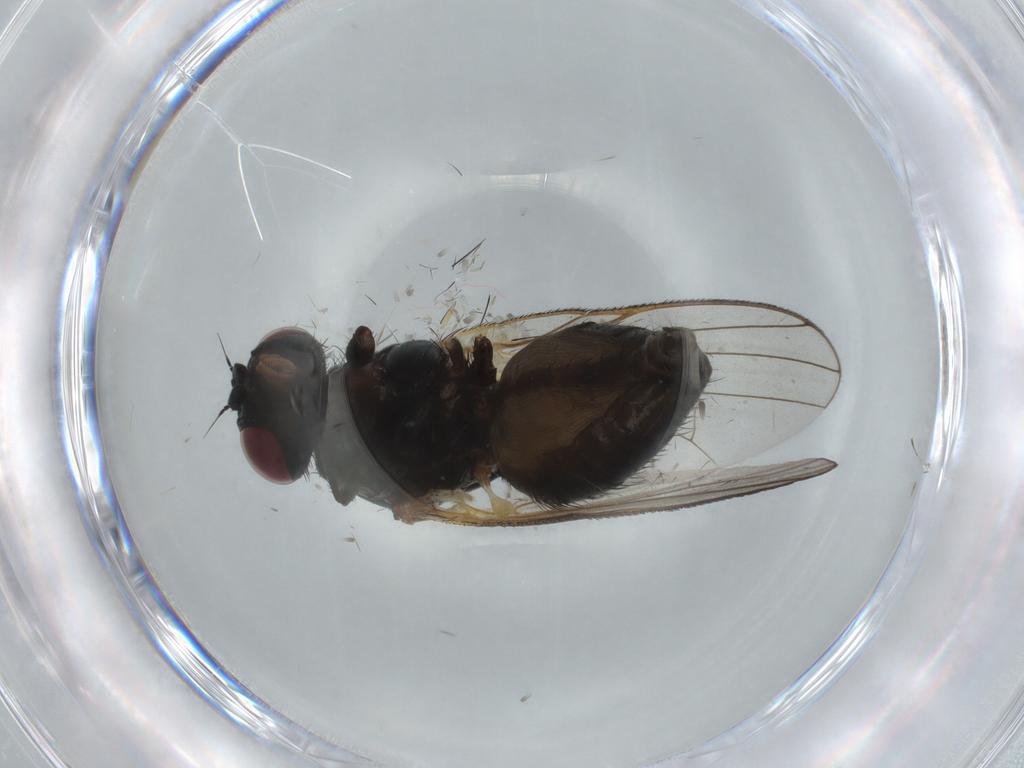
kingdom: Animalia
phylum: Arthropoda
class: Insecta
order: Diptera
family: Fannia
